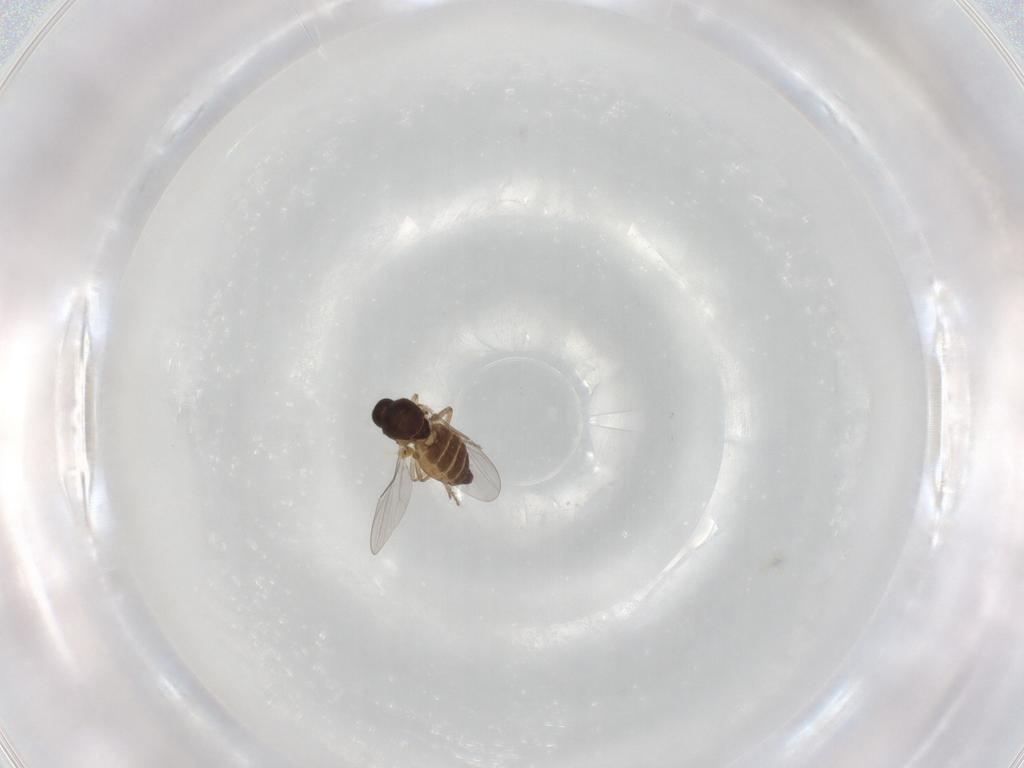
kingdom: Animalia
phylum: Arthropoda
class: Insecta
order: Diptera
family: Ceratopogonidae
